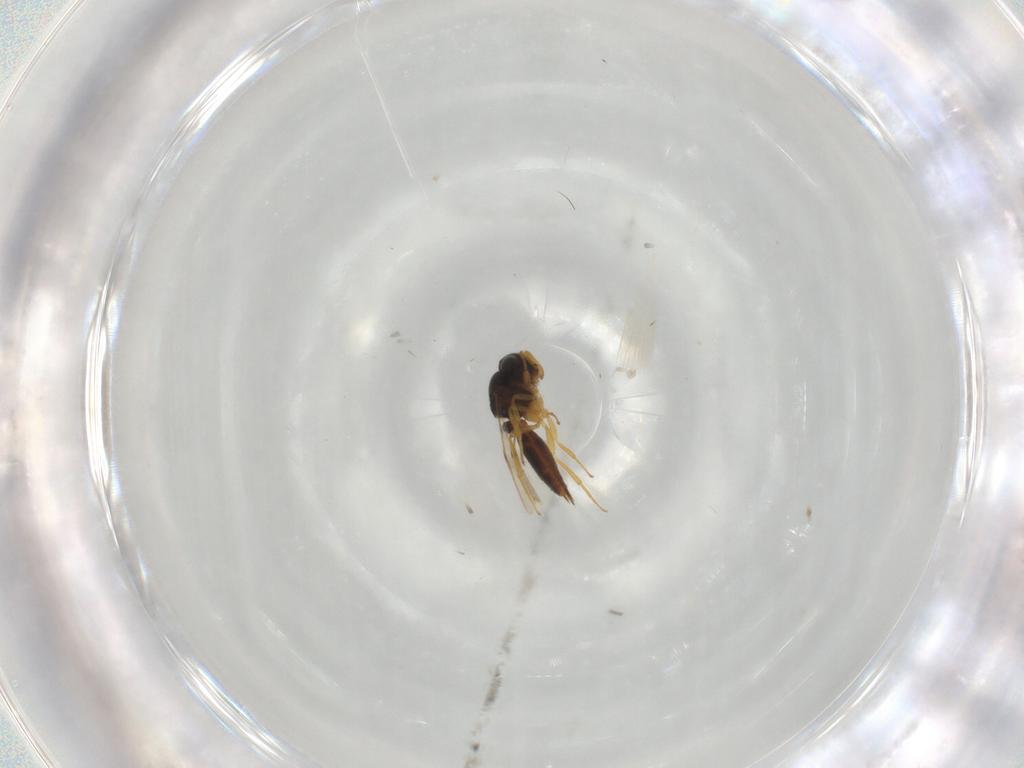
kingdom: Animalia
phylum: Arthropoda
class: Insecta
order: Hymenoptera
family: Scelionidae
